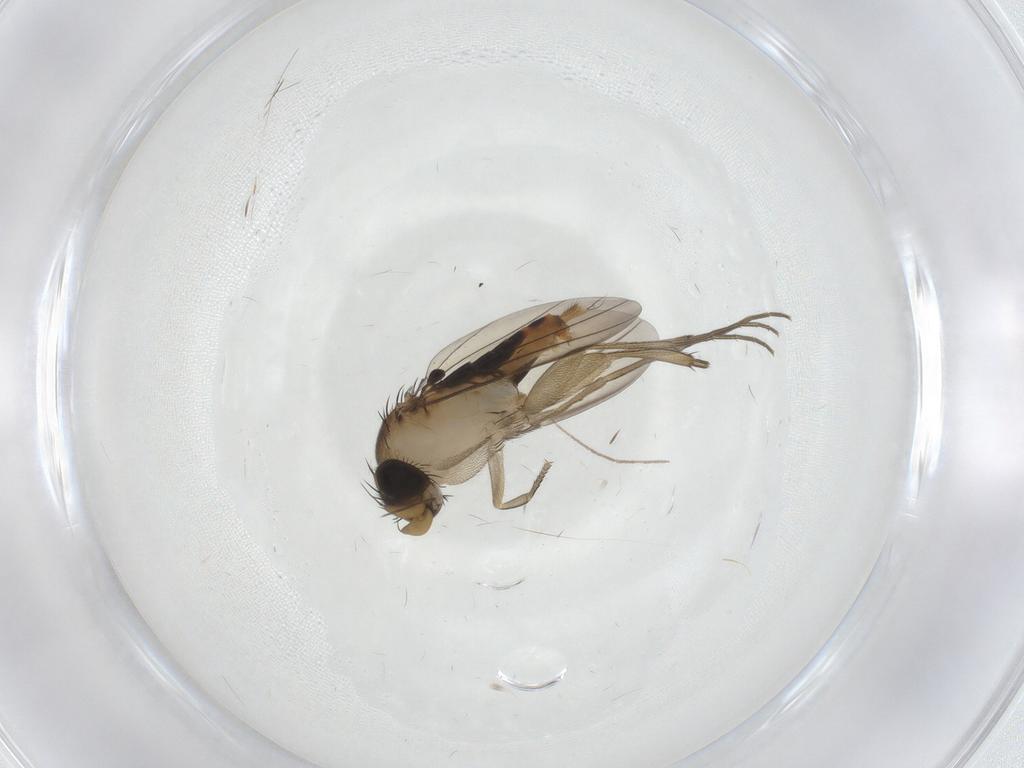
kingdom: Animalia
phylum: Arthropoda
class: Insecta
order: Diptera
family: Phoridae
